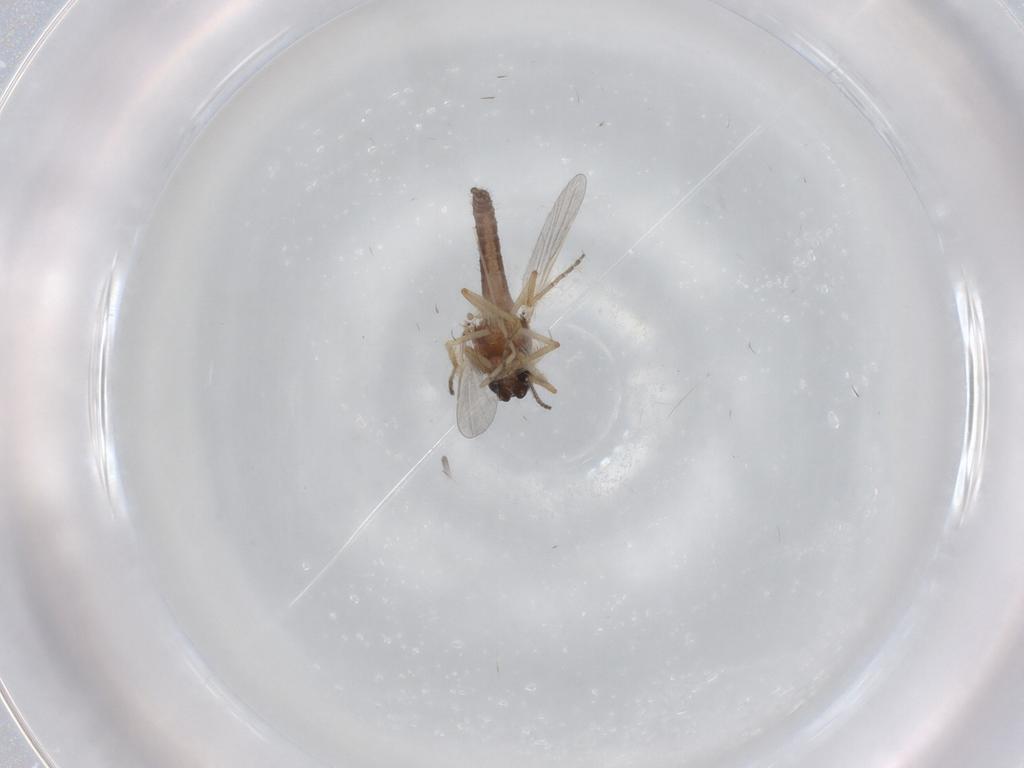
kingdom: Animalia
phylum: Arthropoda
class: Insecta
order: Diptera
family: Ceratopogonidae
